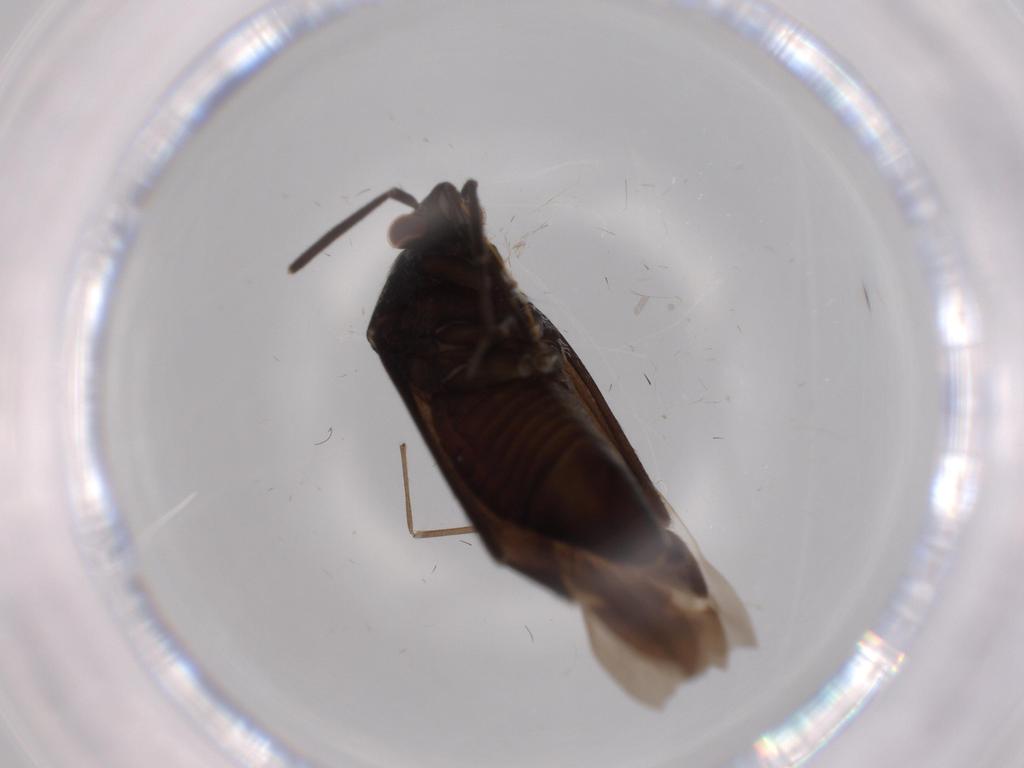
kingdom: Animalia
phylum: Arthropoda
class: Insecta
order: Hemiptera
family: Miridae
